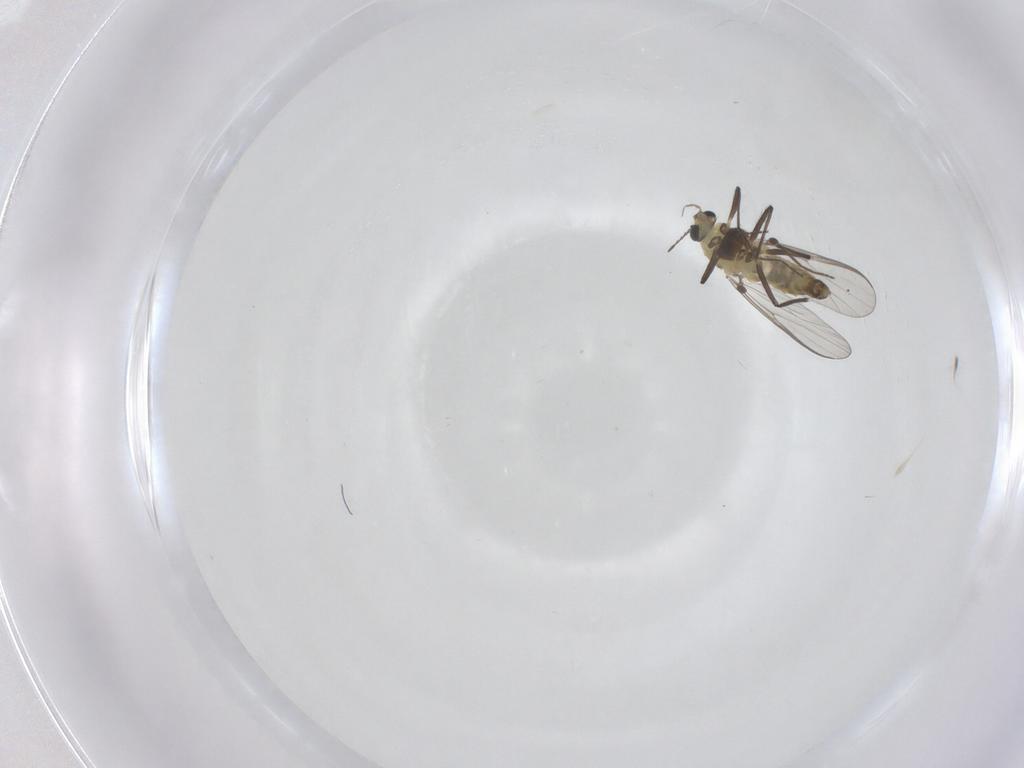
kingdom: Animalia
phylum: Arthropoda
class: Insecta
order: Diptera
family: Chironomidae
